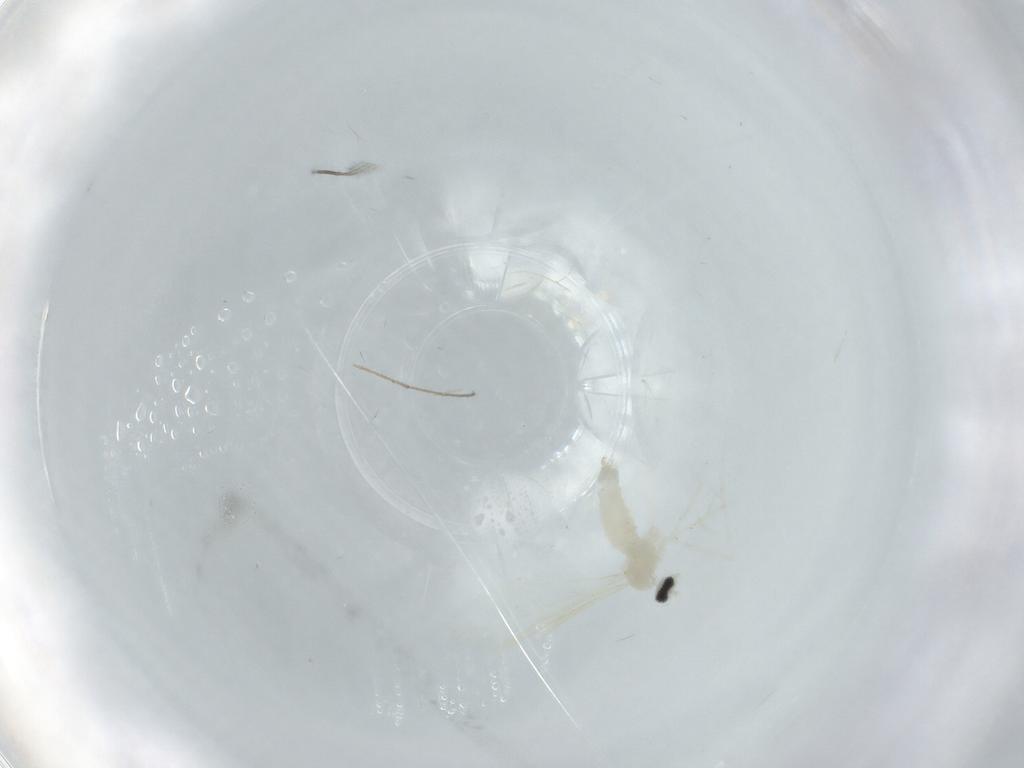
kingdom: Animalia
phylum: Arthropoda
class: Insecta
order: Diptera
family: Cecidomyiidae
